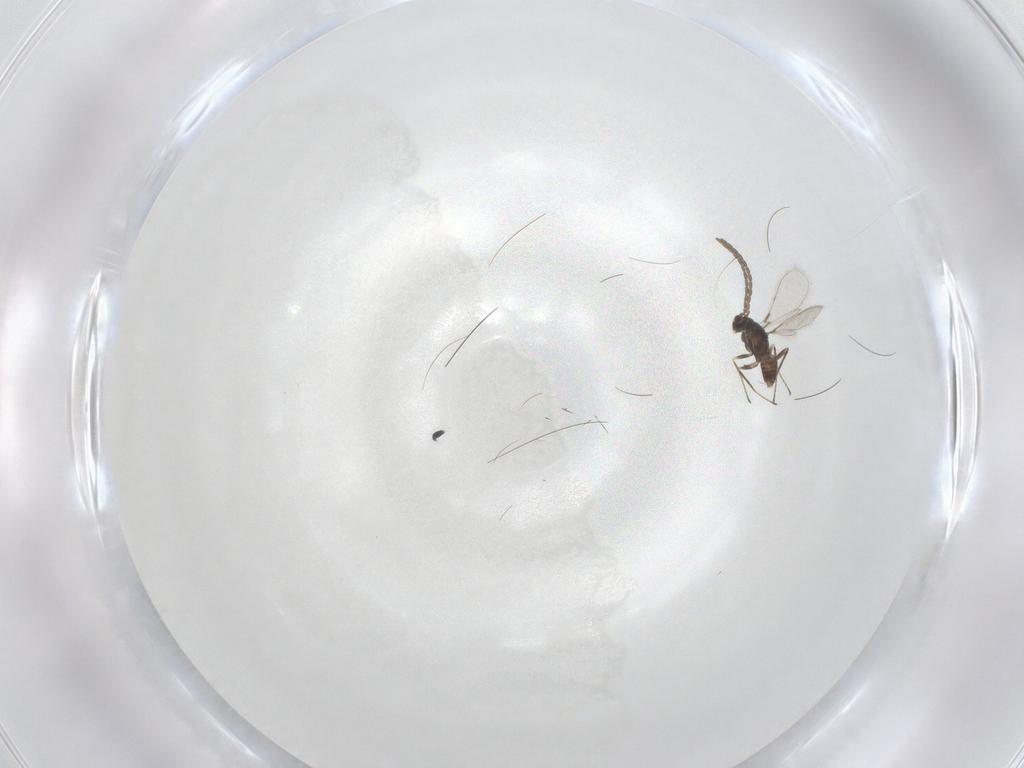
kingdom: Animalia
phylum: Arthropoda
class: Insecta
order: Hymenoptera
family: Mymaridae
